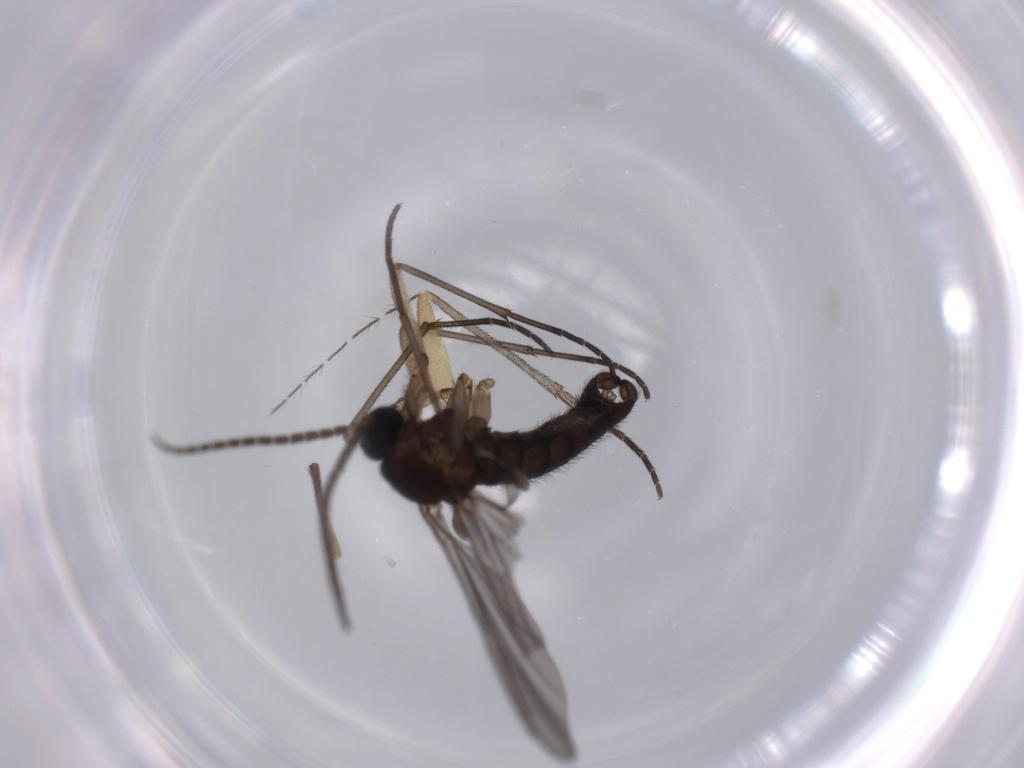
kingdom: Animalia
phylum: Arthropoda
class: Insecta
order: Diptera
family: Sciaridae
